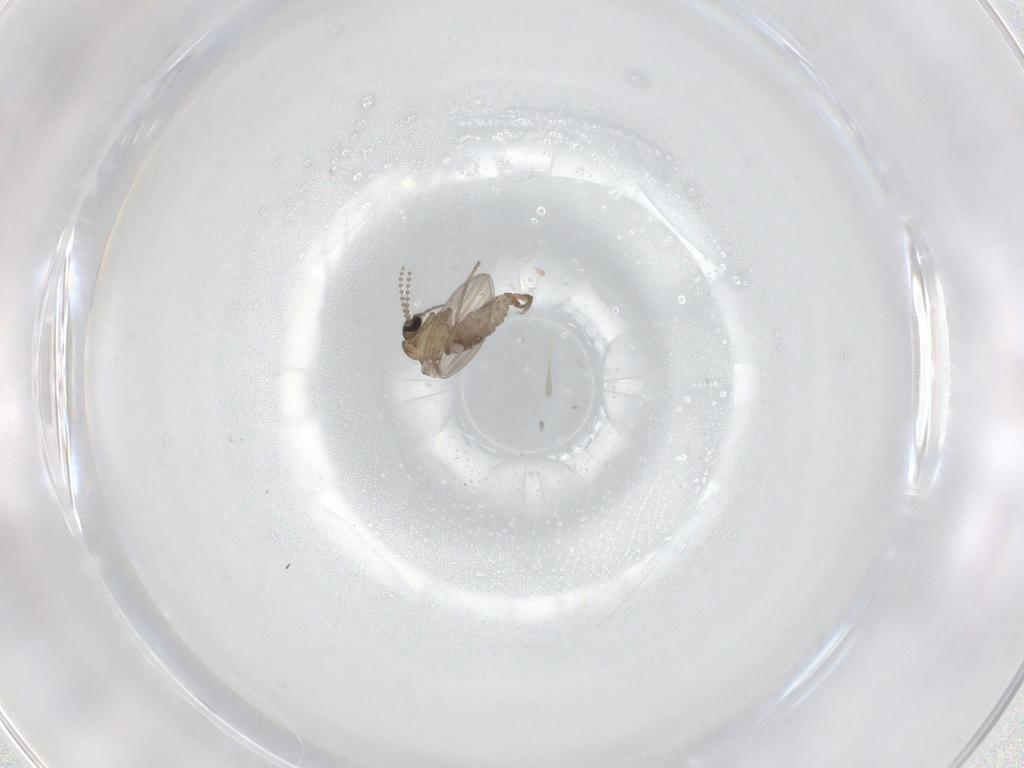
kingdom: Animalia
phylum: Arthropoda
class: Insecta
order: Diptera
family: Psychodidae
